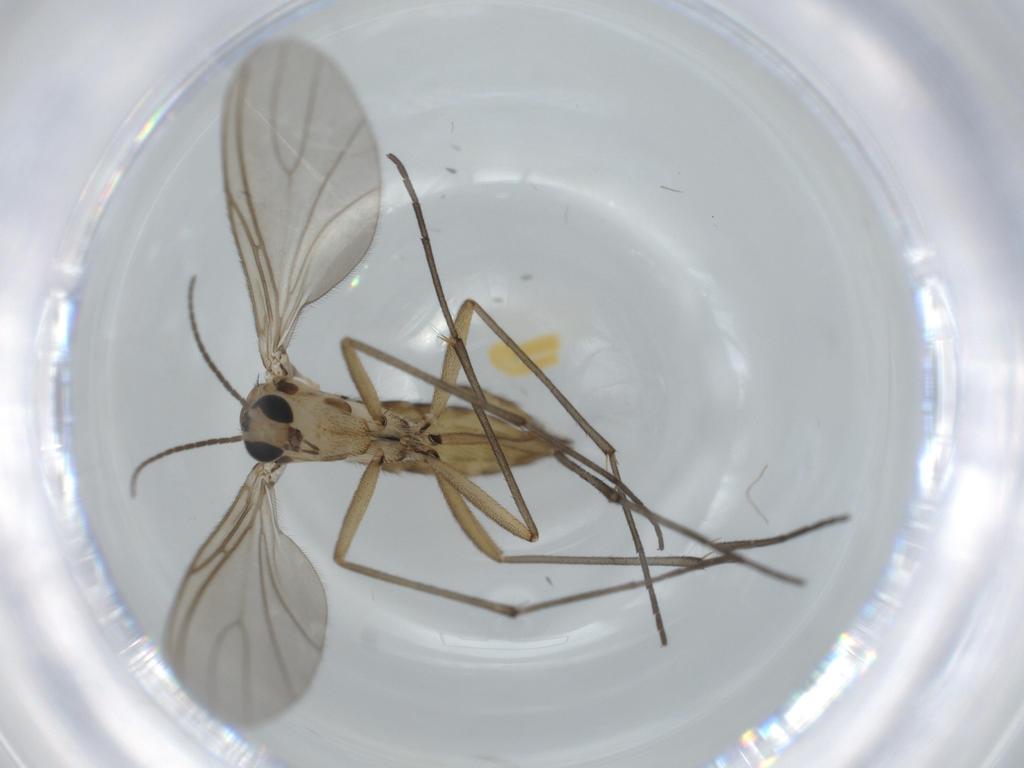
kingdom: Animalia
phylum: Arthropoda
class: Insecta
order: Diptera
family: Sciaridae
